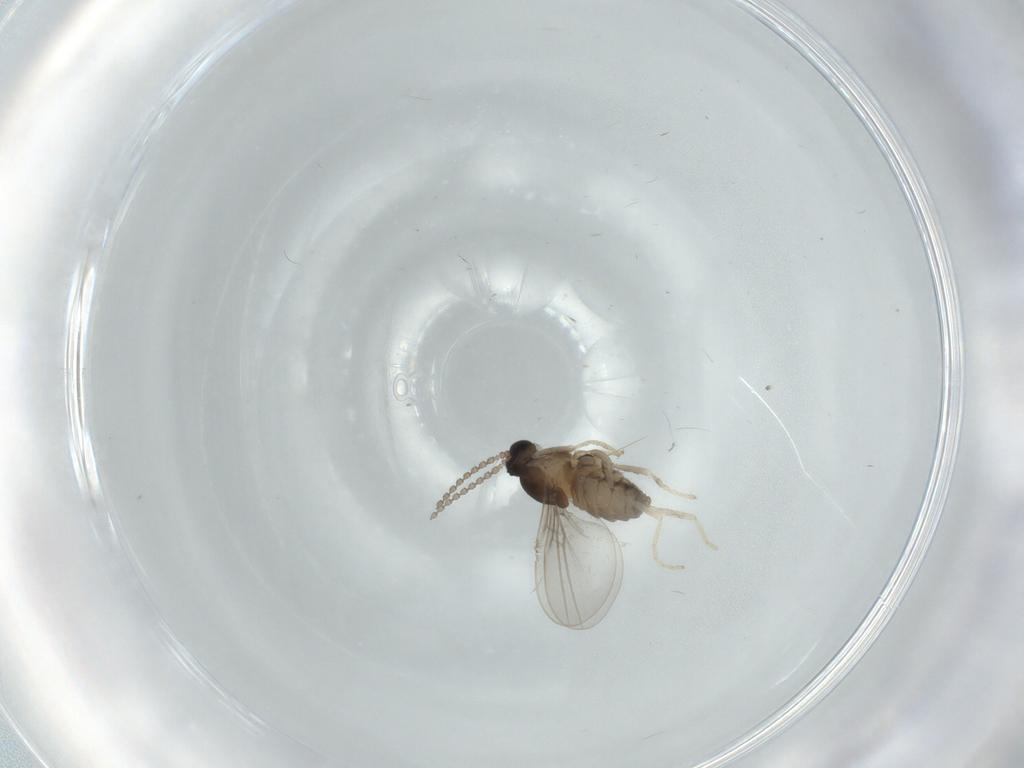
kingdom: Animalia
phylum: Arthropoda
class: Insecta
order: Diptera
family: Cecidomyiidae
